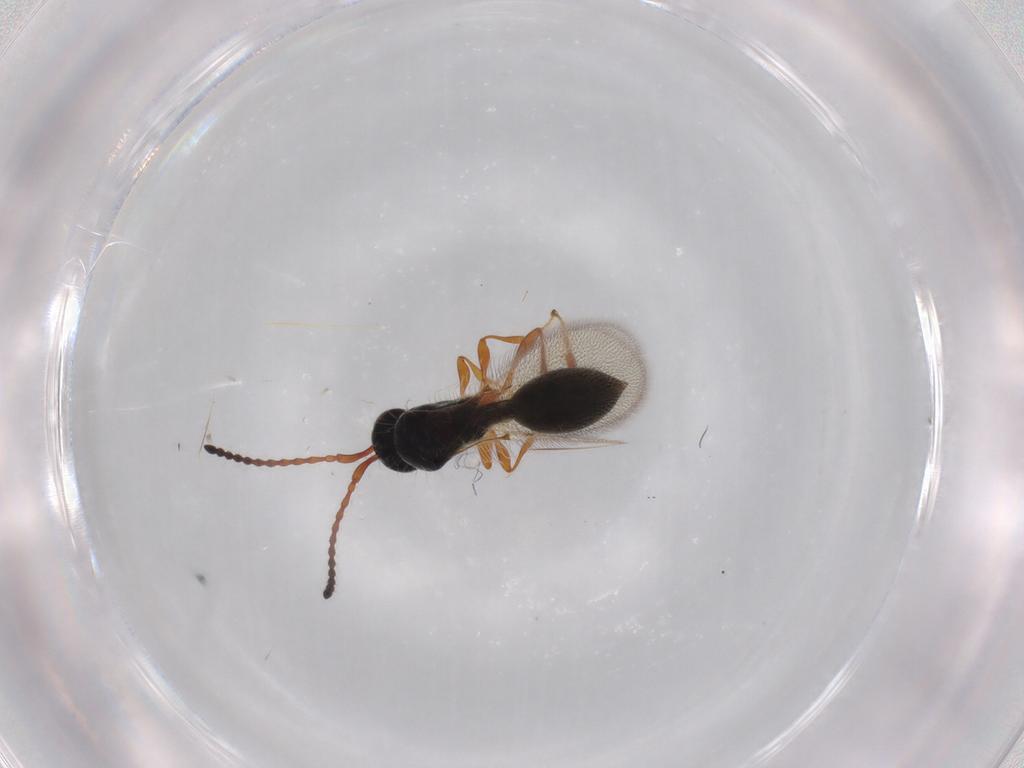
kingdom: Animalia
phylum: Arthropoda
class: Insecta
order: Hymenoptera
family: Diapriidae
